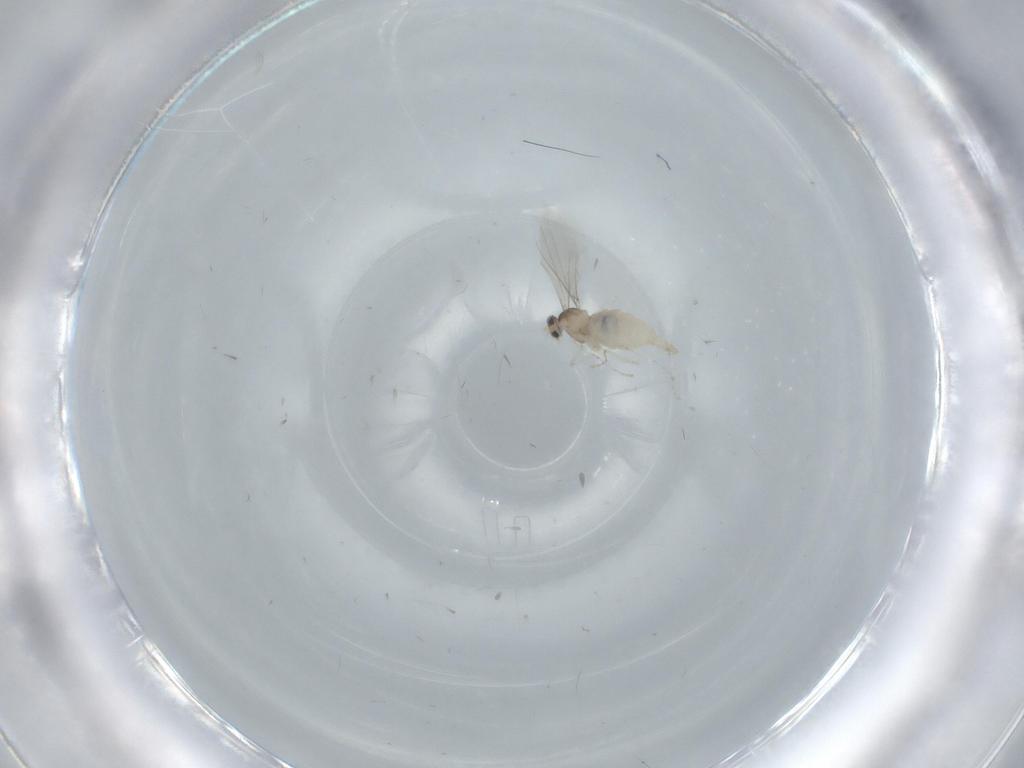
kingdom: Animalia
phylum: Arthropoda
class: Insecta
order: Diptera
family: Cecidomyiidae
